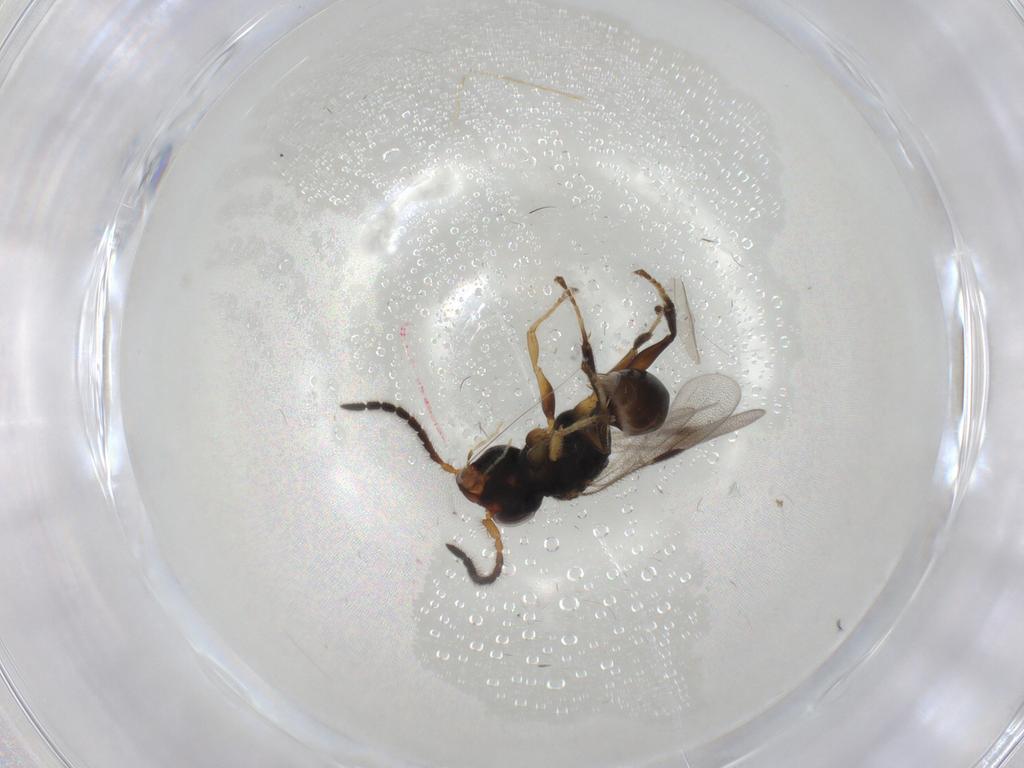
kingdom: Animalia
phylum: Arthropoda
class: Insecta
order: Hymenoptera
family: Dryinidae
